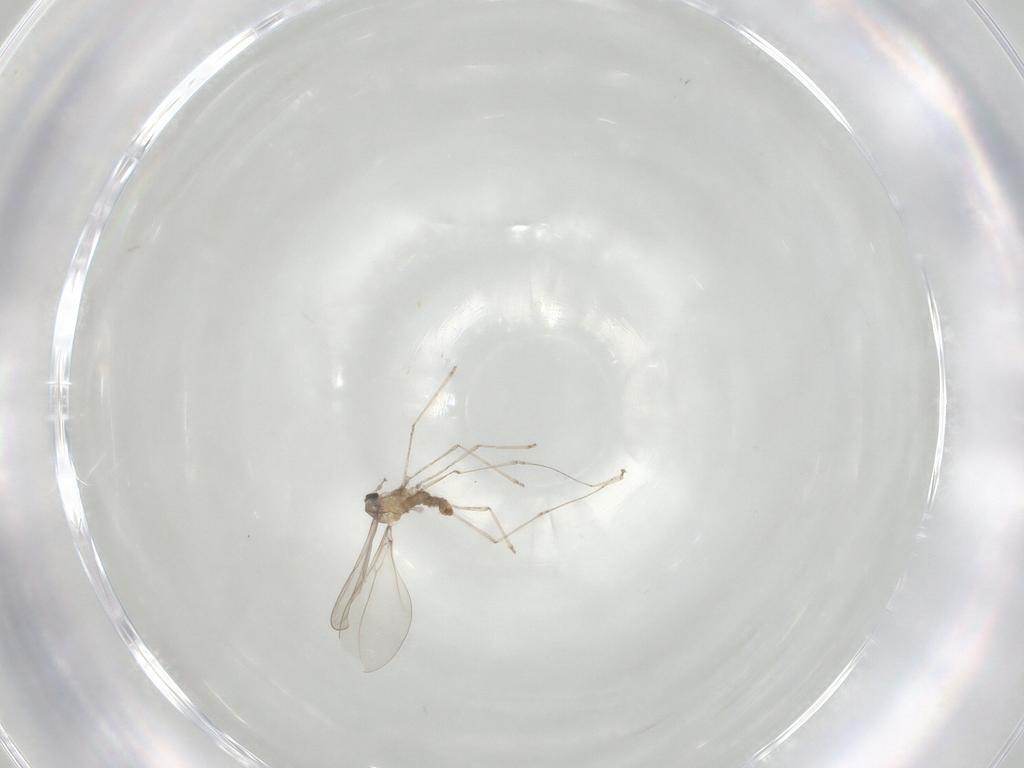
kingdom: Animalia
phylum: Arthropoda
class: Insecta
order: Diptera
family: Cecidomyiidae
